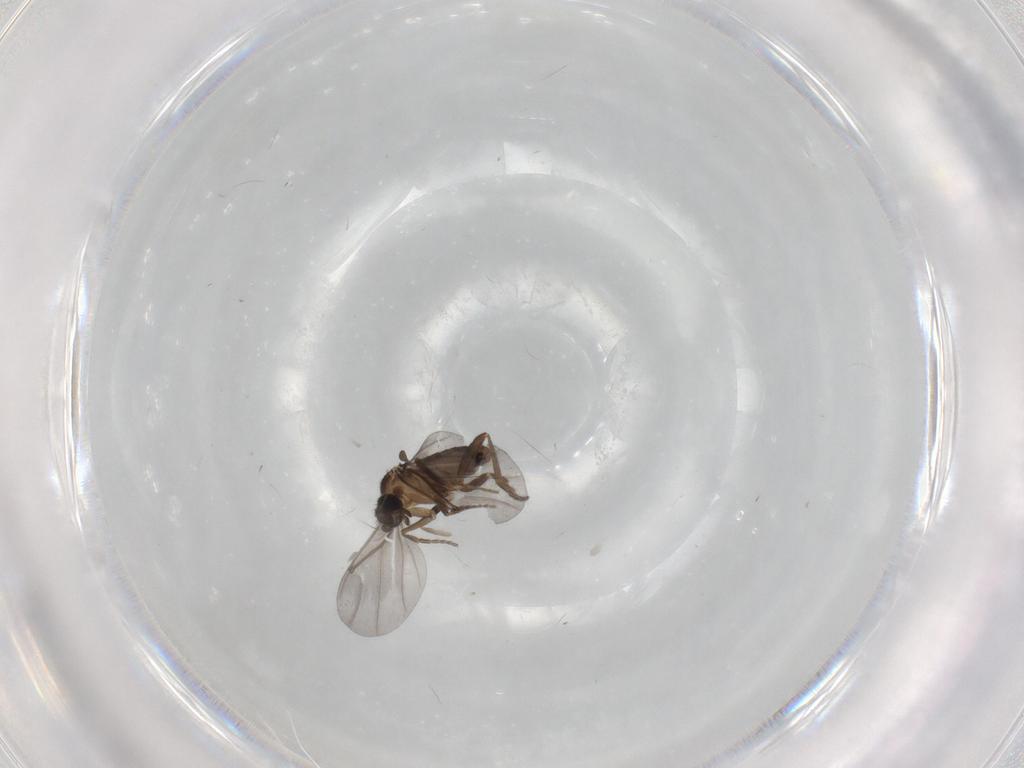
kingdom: Animalia
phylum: Arthropoda
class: Insecta
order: Diptera
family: Phoridae
